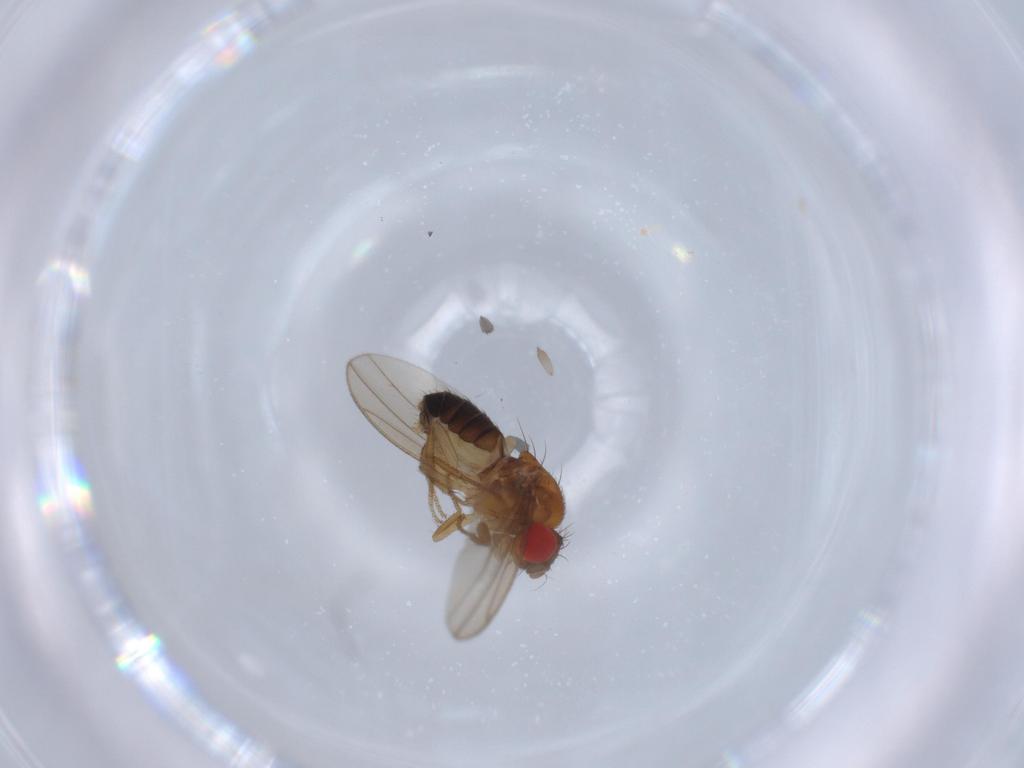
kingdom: Animalia
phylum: Arthropoda
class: Insecta
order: Diptera
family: Drosophilidae
